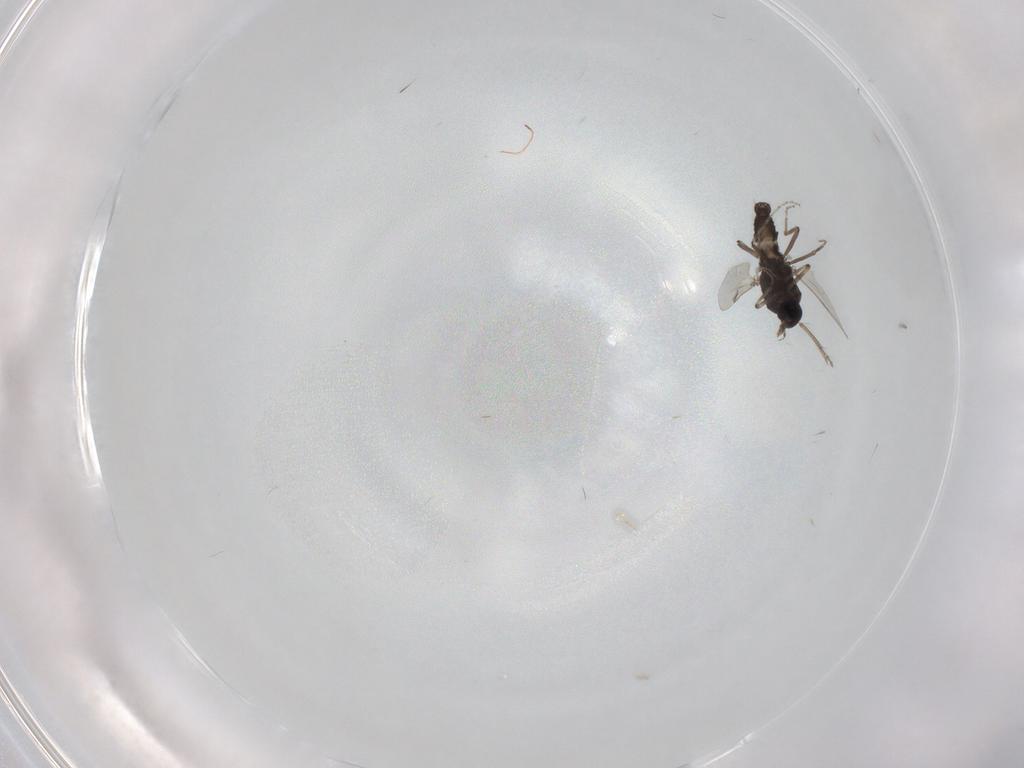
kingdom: Animalia
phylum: Arthropoda
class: Insecta
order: Diptera
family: Ceratopogonidae
